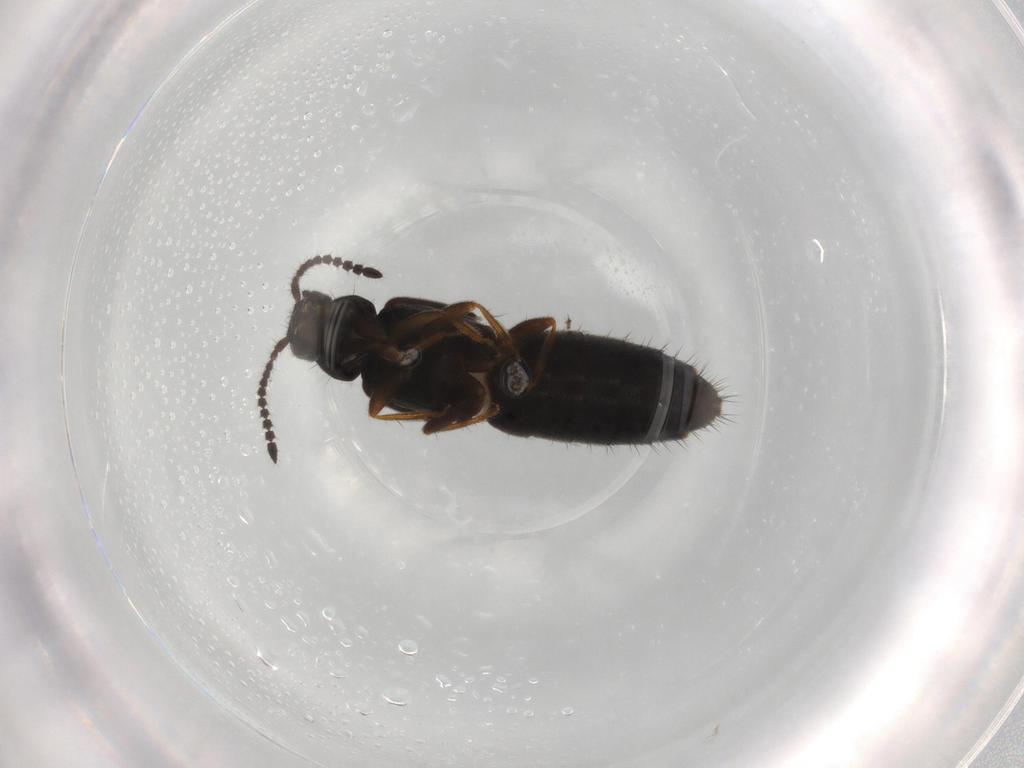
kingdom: Animalia
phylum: Arthropoda
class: Insecta
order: Coleoptera
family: Staphylinidae
